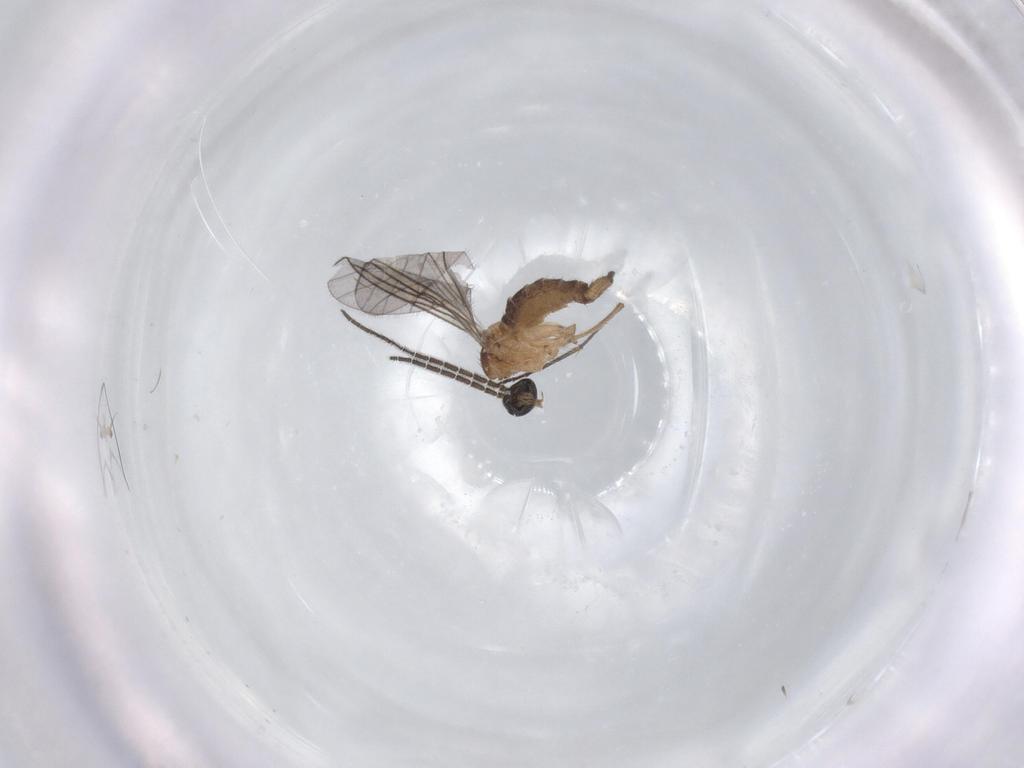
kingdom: Animalia
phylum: Arthropoda
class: Insecta
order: Diptera
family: Sciaridae
